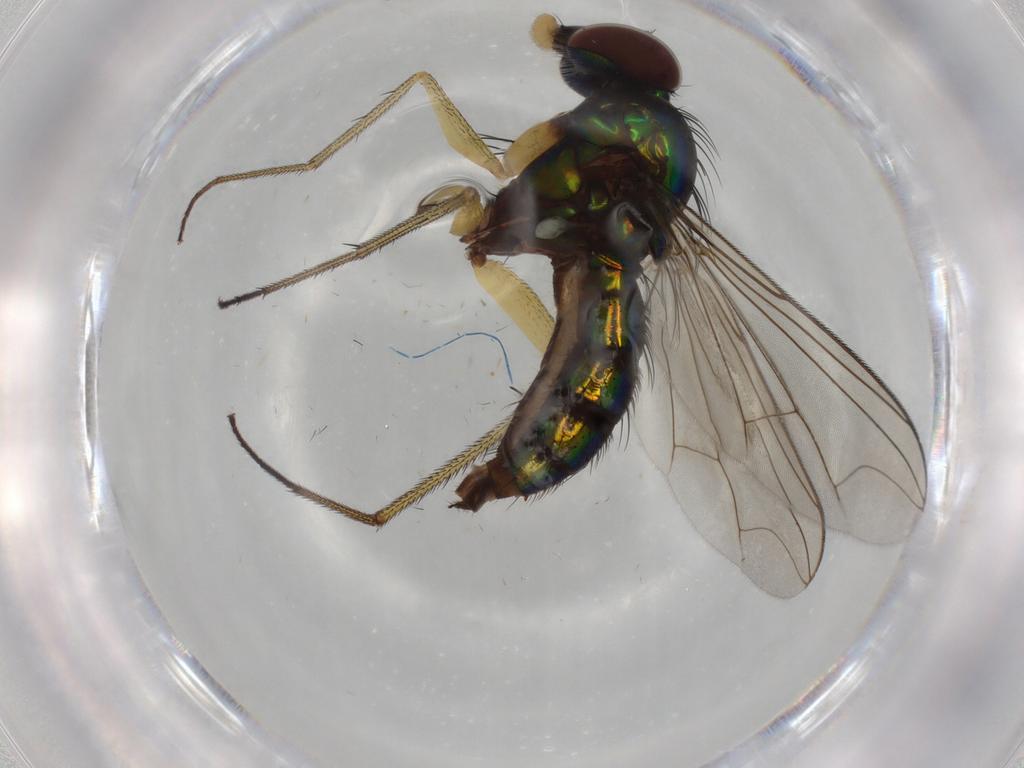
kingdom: Animalia
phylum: Arthropoda
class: Insecta
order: Diptera
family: Dolichopodidae
